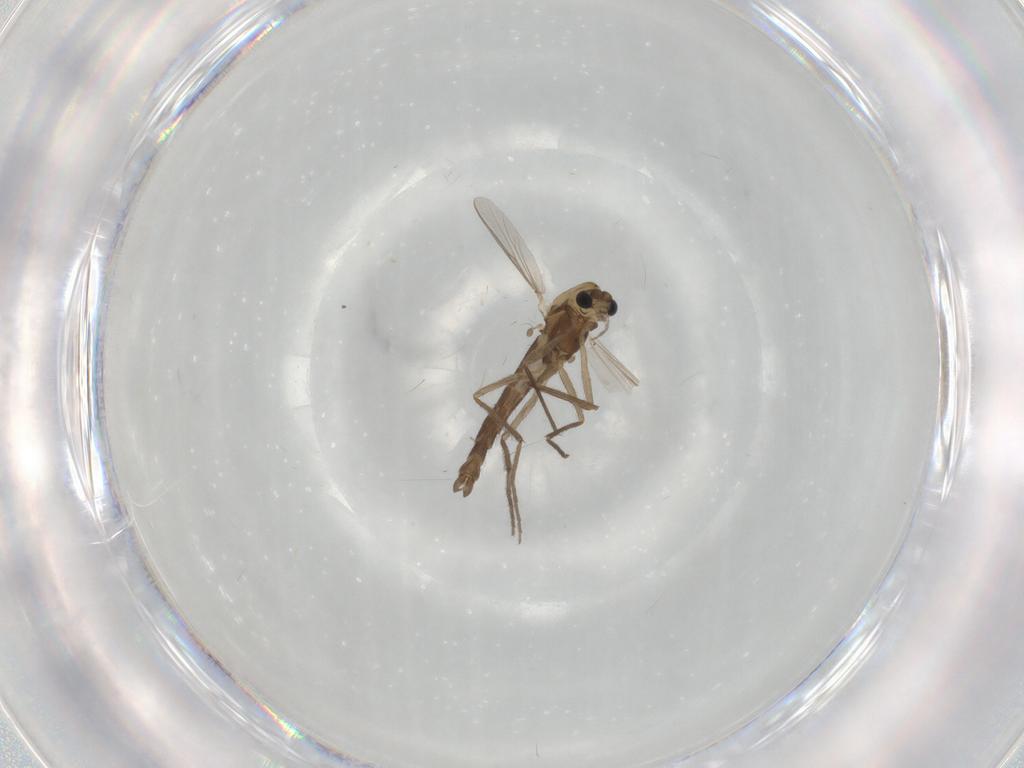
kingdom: Animalia
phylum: Arthropoda
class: Insecta
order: Diptera
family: Chironomidae
